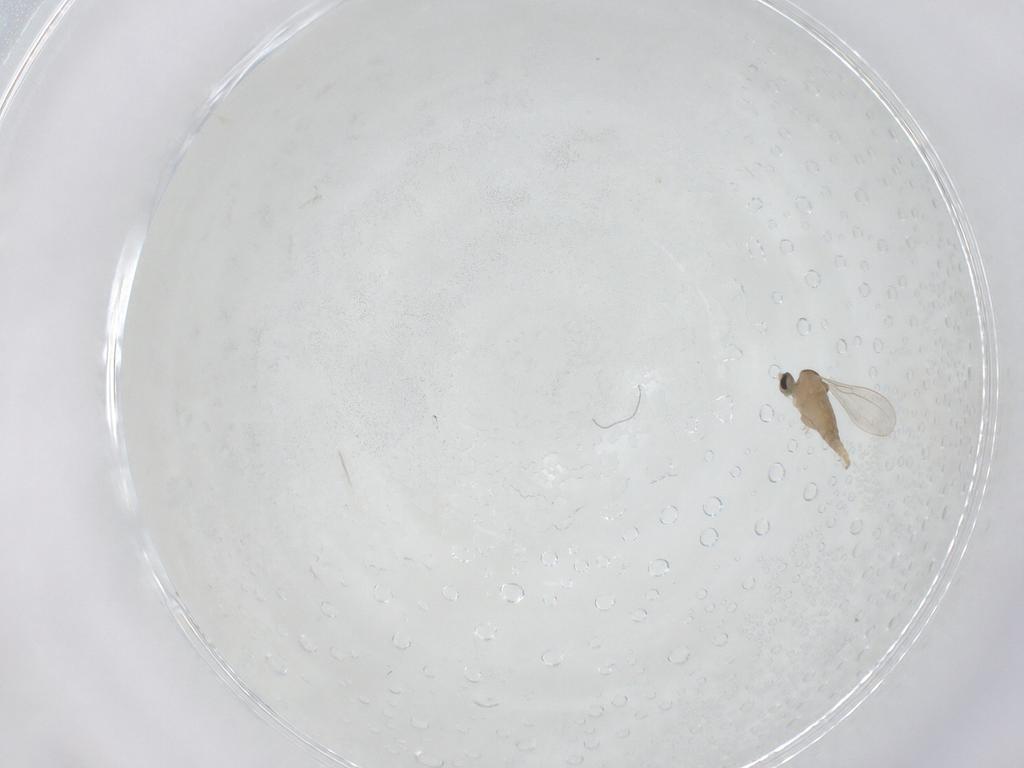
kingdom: Animalia
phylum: Arthropoda
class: Insecta
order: Diptera
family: Cecidomyiidae
